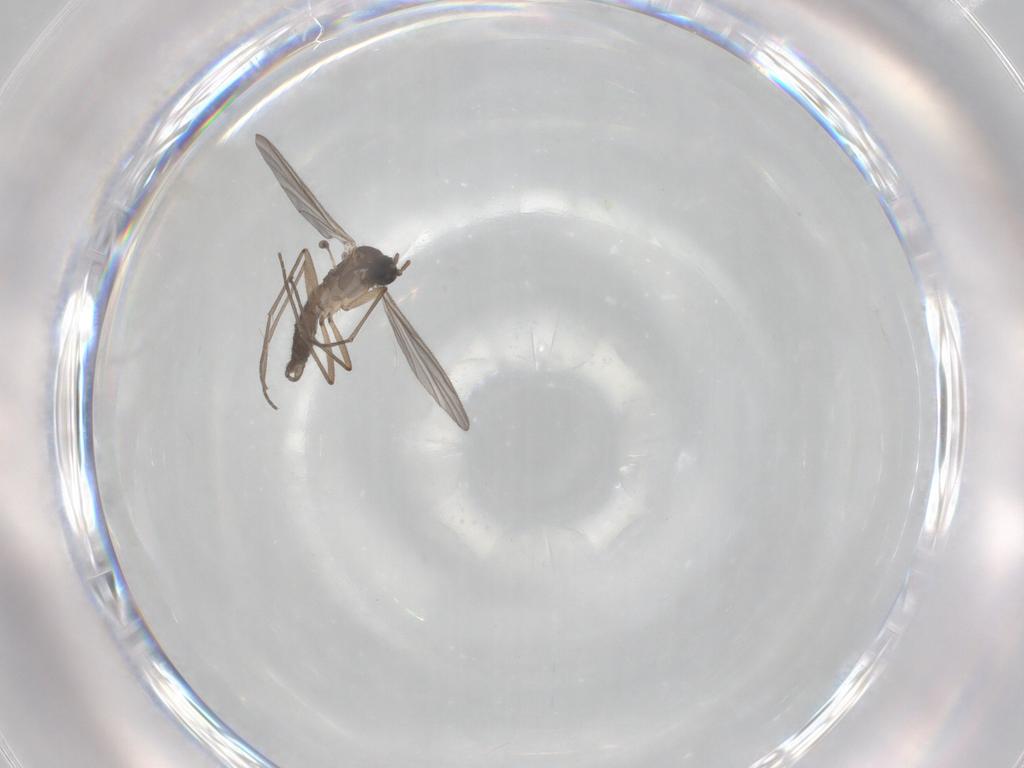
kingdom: Animalia
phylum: Arthropoda
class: Insecta
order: Diptera
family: Sciaridae
